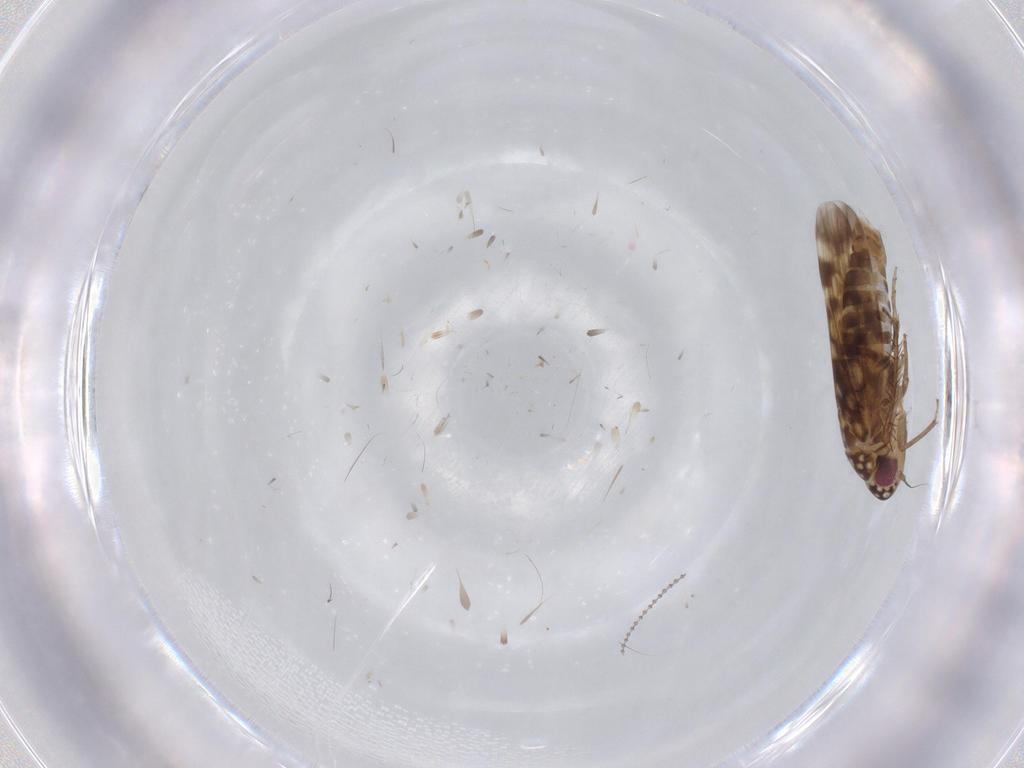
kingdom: Animalia
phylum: Arthropoda
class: Insecta
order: Hemiptera
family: Cicadellidae
